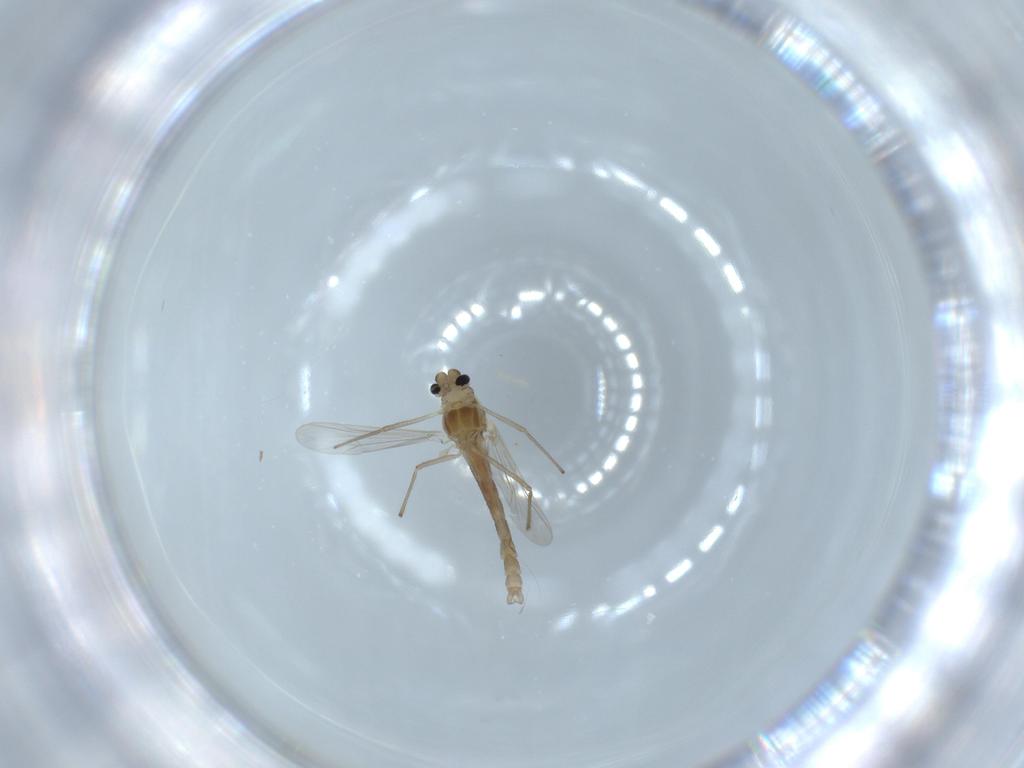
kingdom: Animalia
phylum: Arthropoda
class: Insecta
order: Diptera
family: Chironomidae
